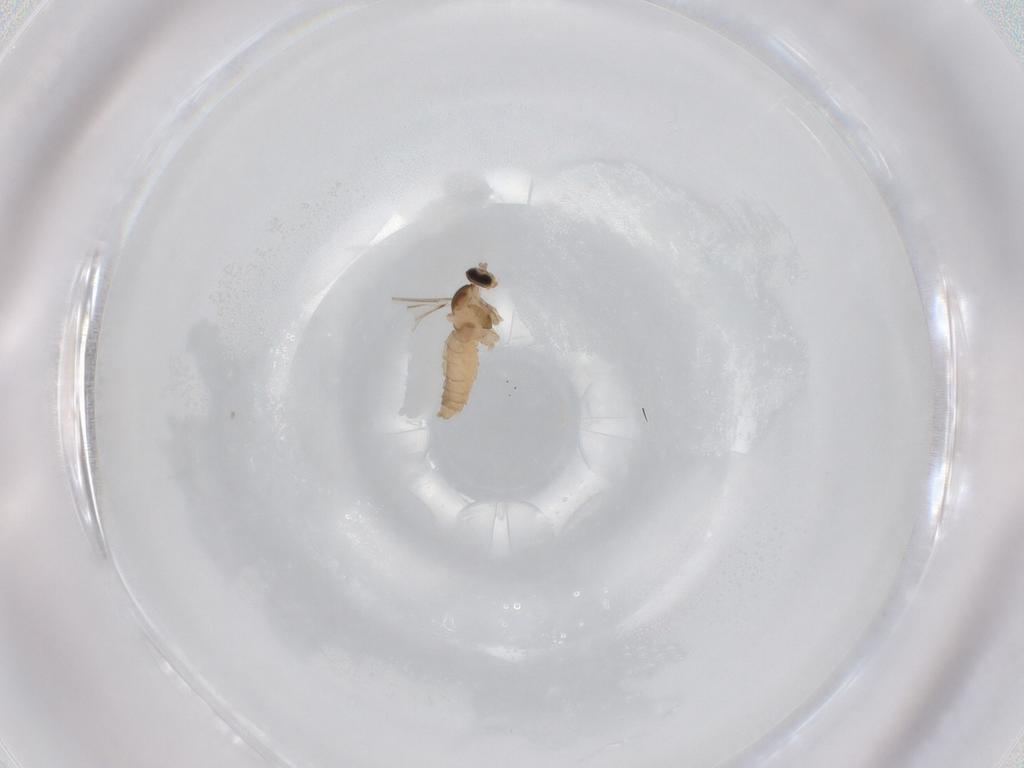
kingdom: Animalia
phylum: Arthropoda
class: Insecta
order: Diptera
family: Cecidomyiidae
